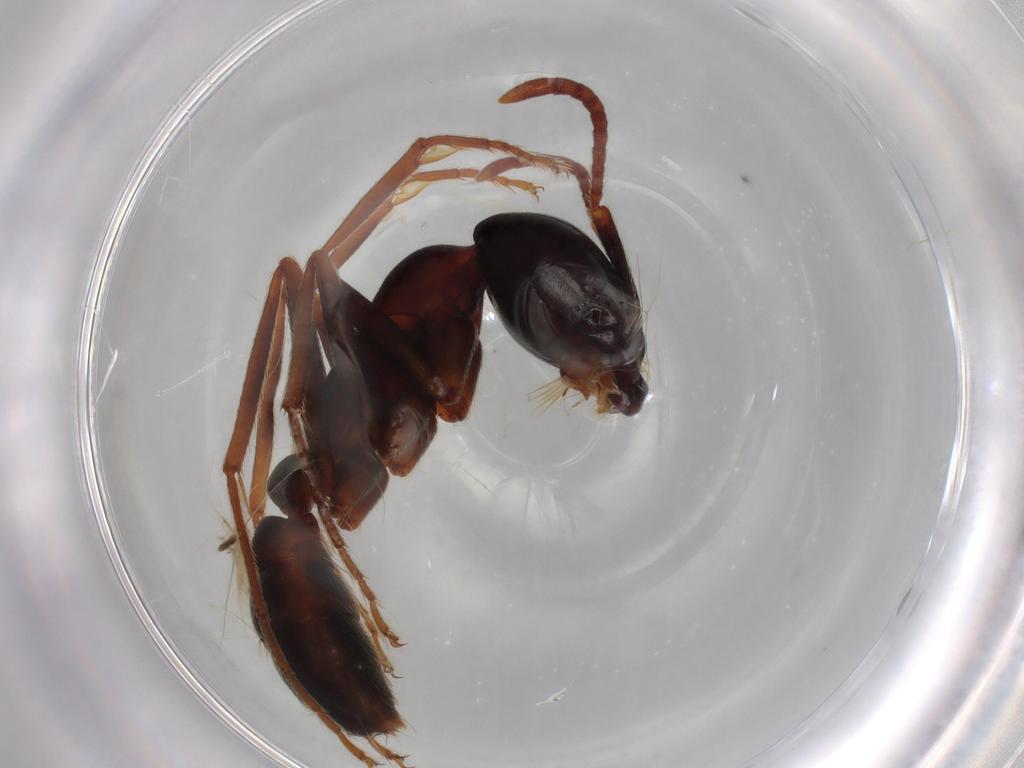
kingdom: Animalia
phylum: Arthropoda
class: Insecta
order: Hymenoptera
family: Formicidae
